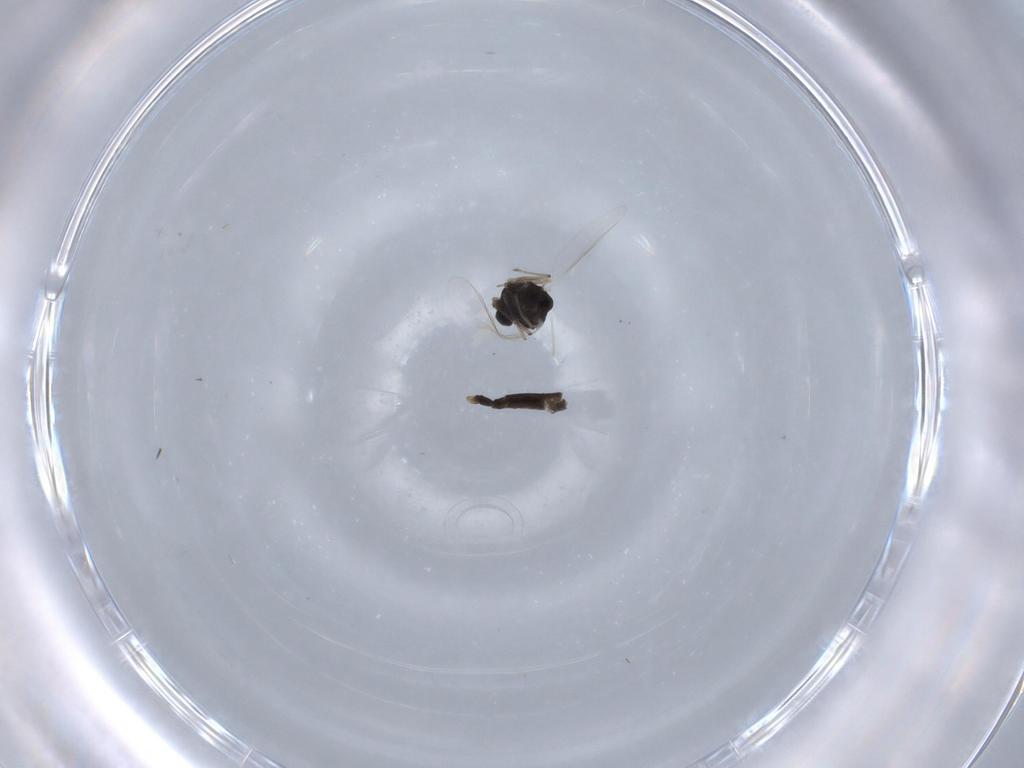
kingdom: Animalia
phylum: Arthropoda
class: Insecta
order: Diptera
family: Chironomidae
